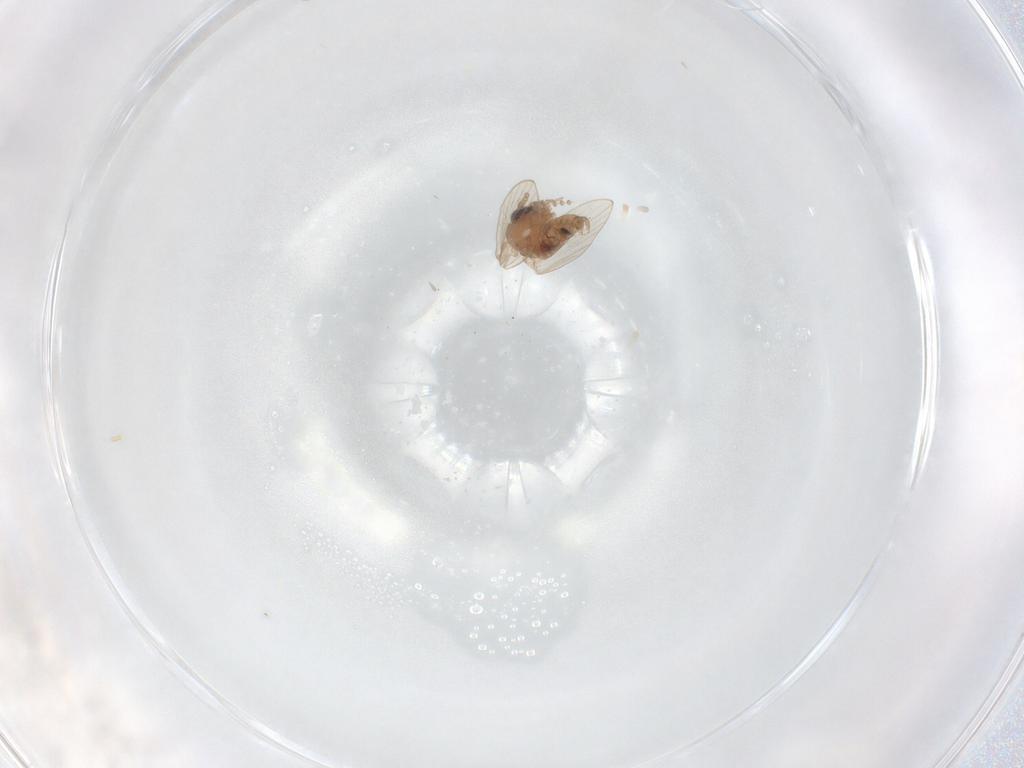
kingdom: Animalia
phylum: Arthropoda
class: Insecta
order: Diptera
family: Psychodidae
